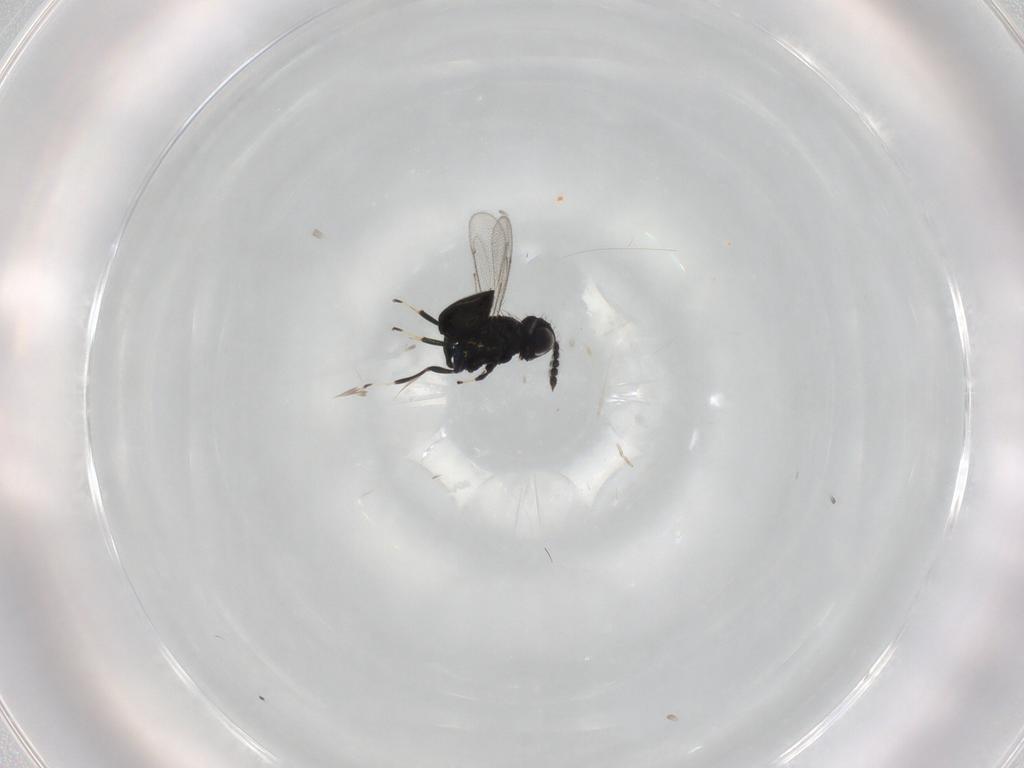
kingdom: Animalia
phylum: Arthropoda
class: Insecta
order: Hymenoptera
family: Eulophidae
